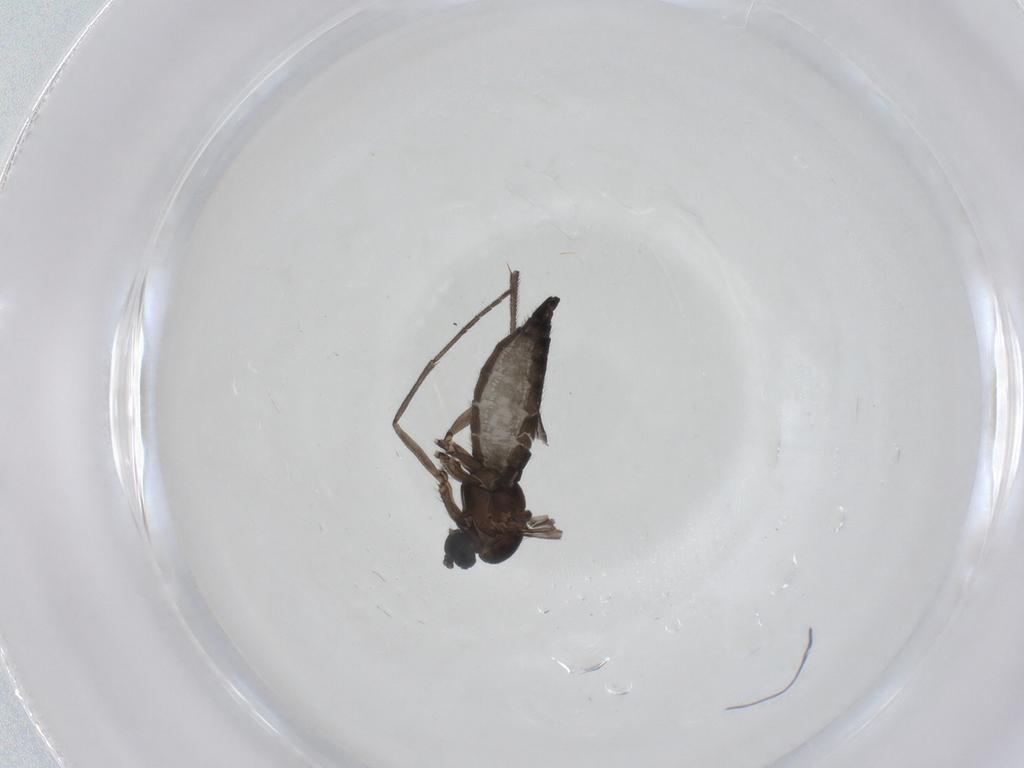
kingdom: Animalia
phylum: Arthropoda
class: Insecta
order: Diptera
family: Sciaridae
